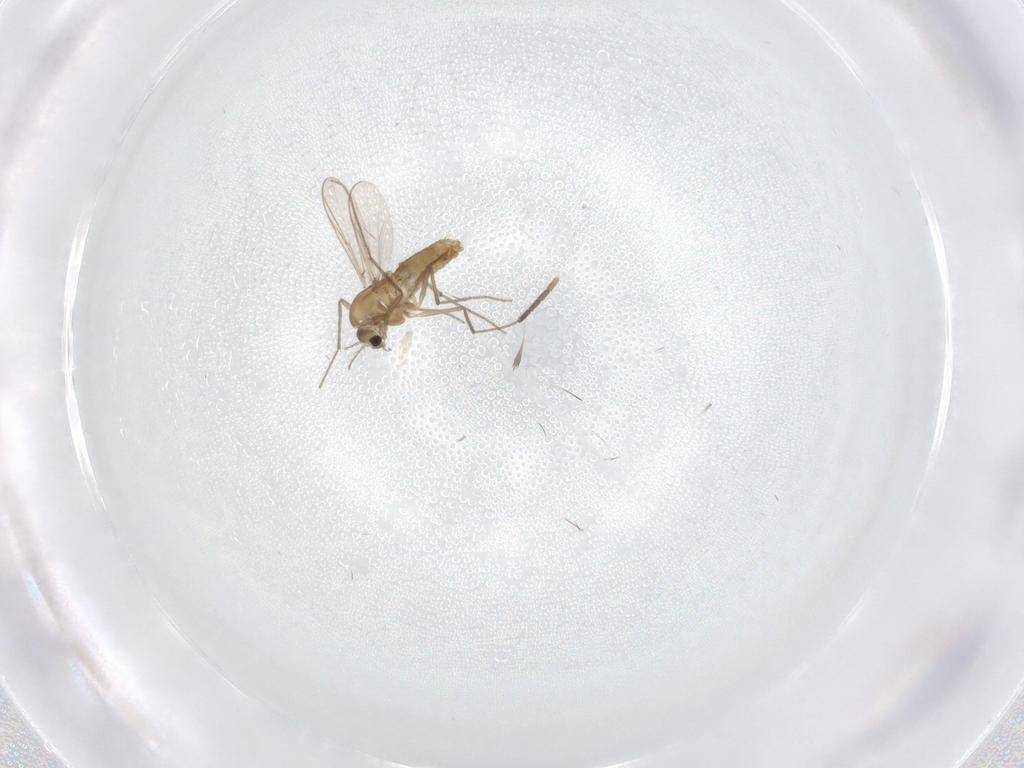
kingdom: Animalia
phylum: Arthropoda
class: Insecta
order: Diptera
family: Chironomidae
